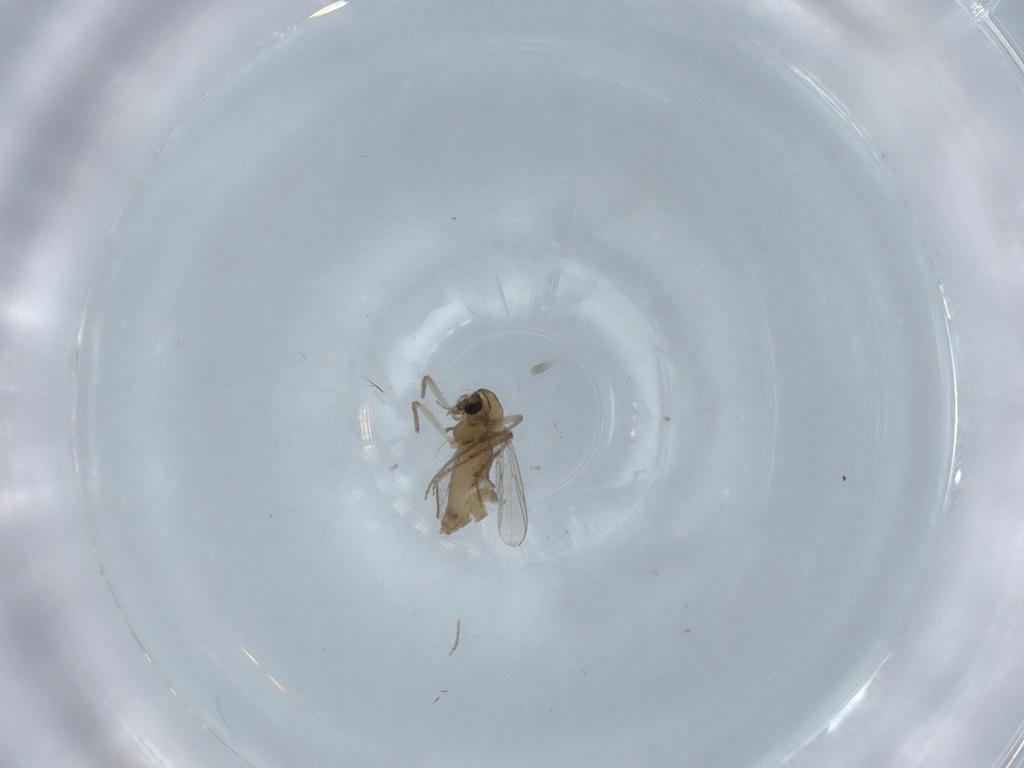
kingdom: Animalia
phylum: Arthropoda
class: Insecta
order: Diptera
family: Chironomidae
